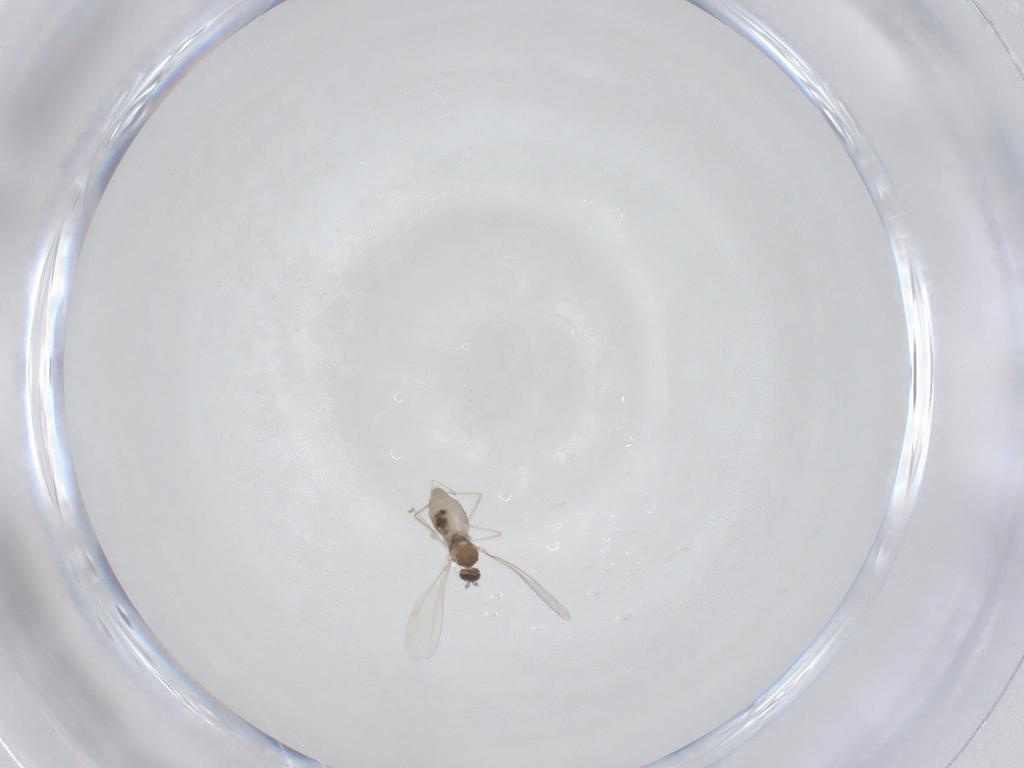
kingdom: Animalia
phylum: Arthropoda
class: Insecta
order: Diptera
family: Cecidomyiidae
